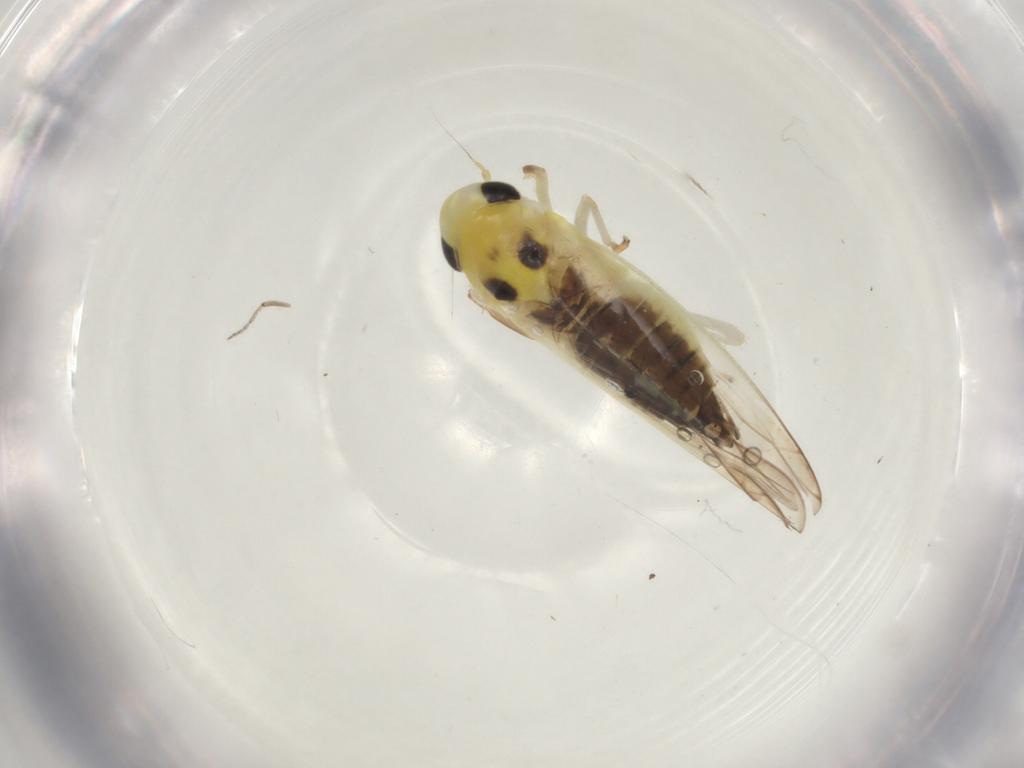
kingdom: Animalia
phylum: Arthropoda
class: Insecta
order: Hemiptera
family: Cicadellidae
